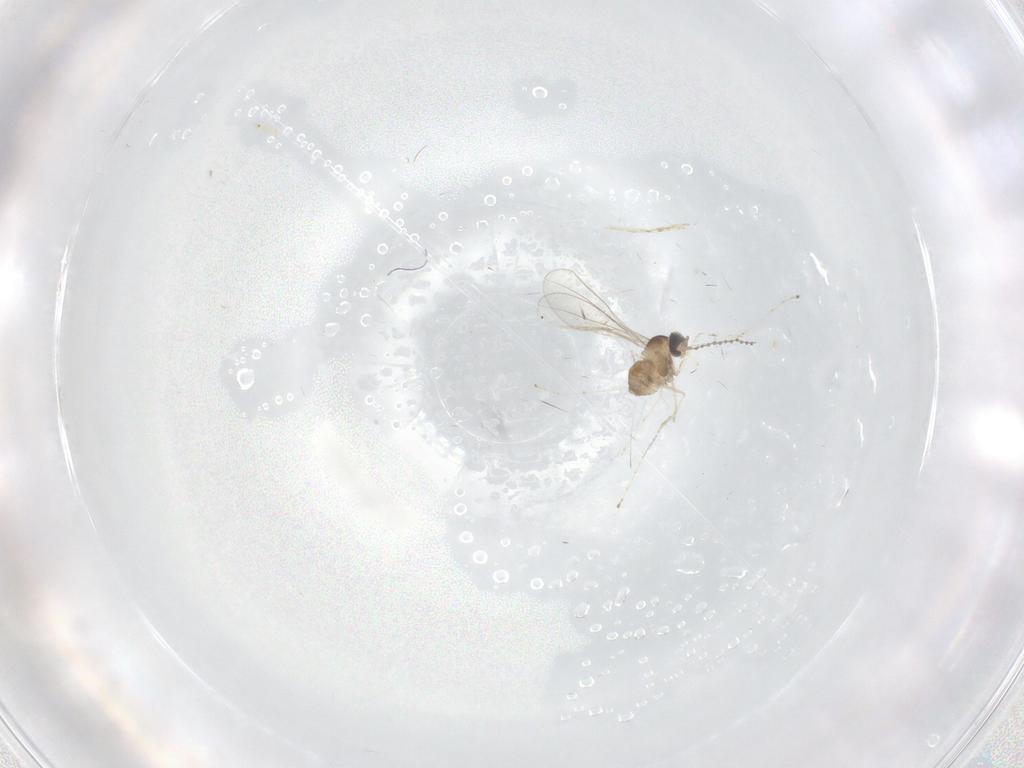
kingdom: Animalia
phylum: Arthropoda
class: Insecta
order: Diptera
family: Cecidomyiidae
